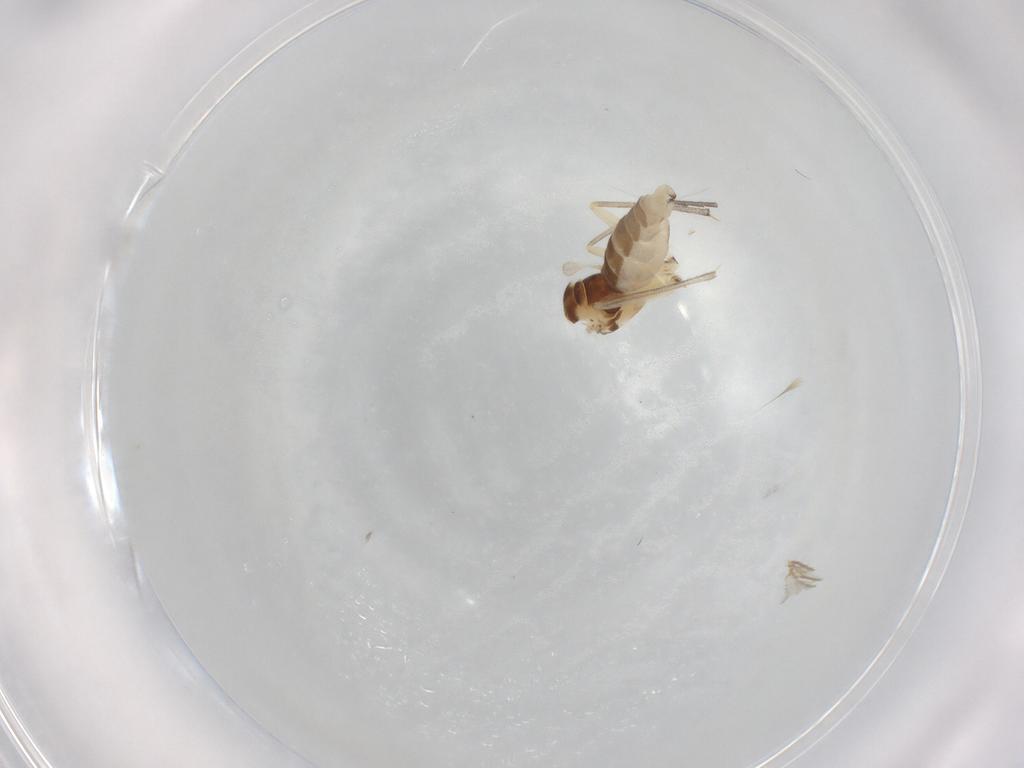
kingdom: Animalia
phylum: Arthropoda
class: Insecta
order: Diptera
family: Sciaridae
